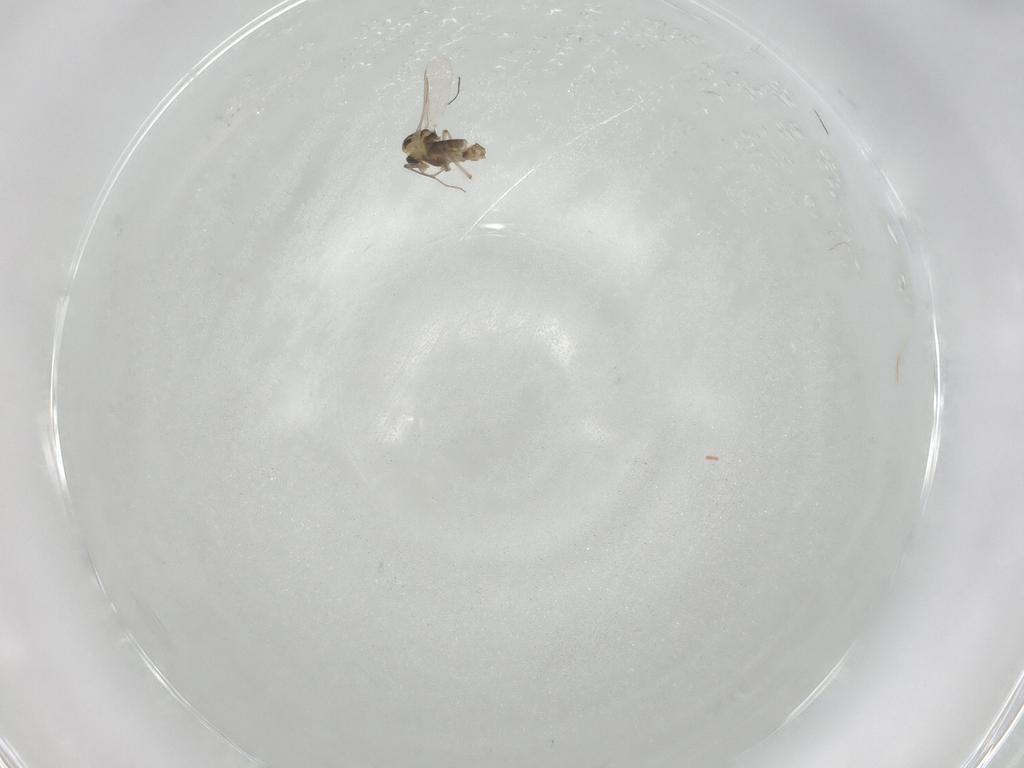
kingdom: Animalia
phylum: Arthropoda
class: Insecta
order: Diptera
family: Chironomidae
